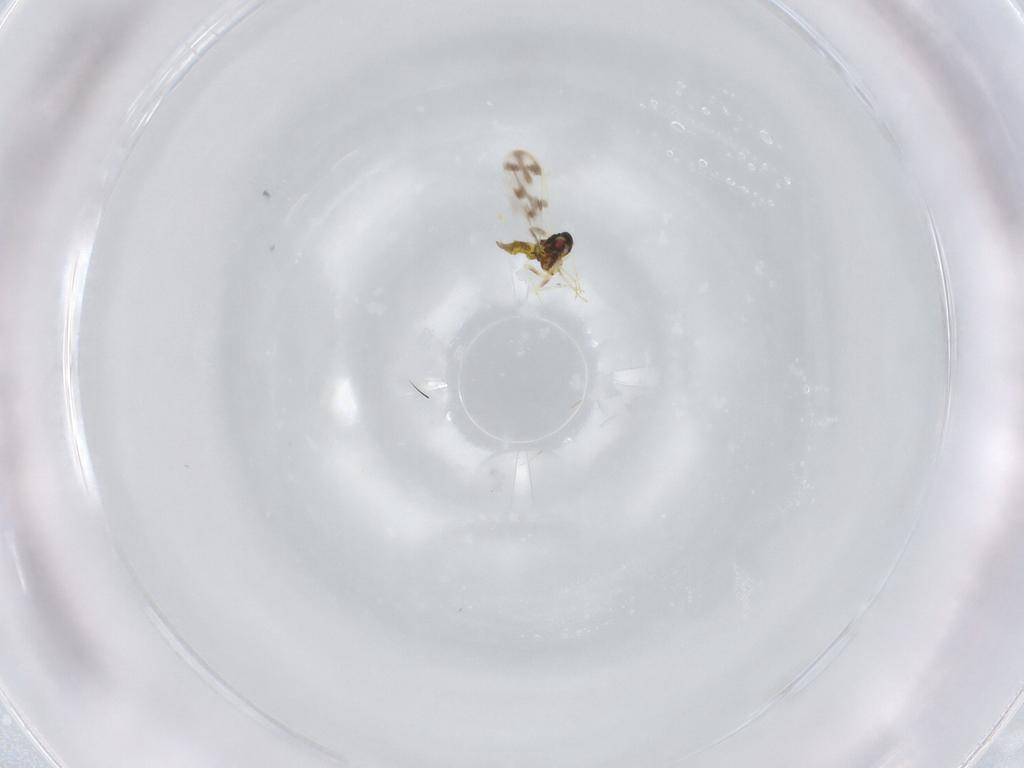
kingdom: Animalia
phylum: Arthropoda
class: Insecta
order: Hemiptera
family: Aleyrodidae
